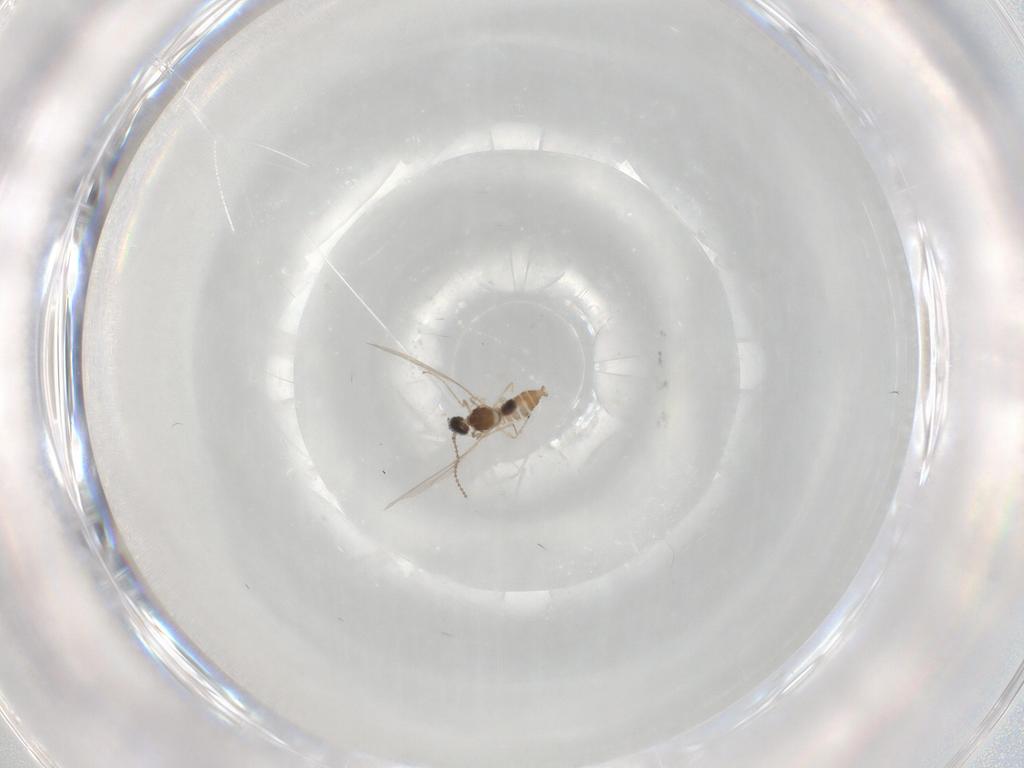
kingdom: Animalia
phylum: Arthropoda
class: Insecta
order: Diptera
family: Cecidomyiidae
